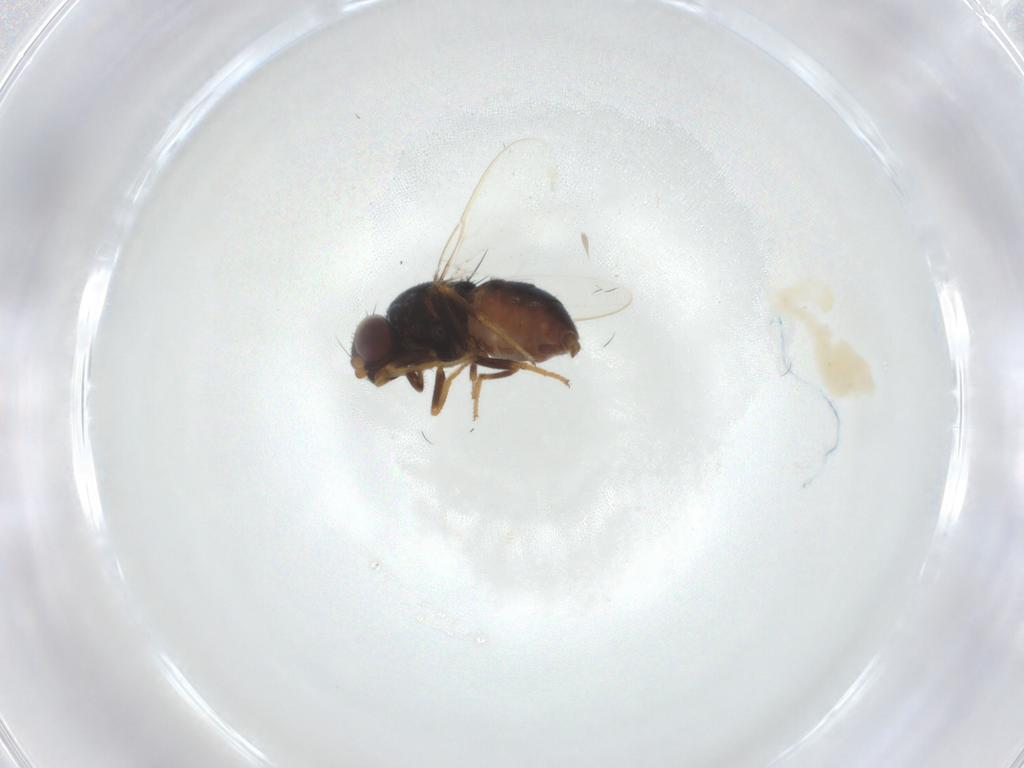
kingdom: Animalia
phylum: Arthropoda
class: Insecta
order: Diptera
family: Chloropidae
